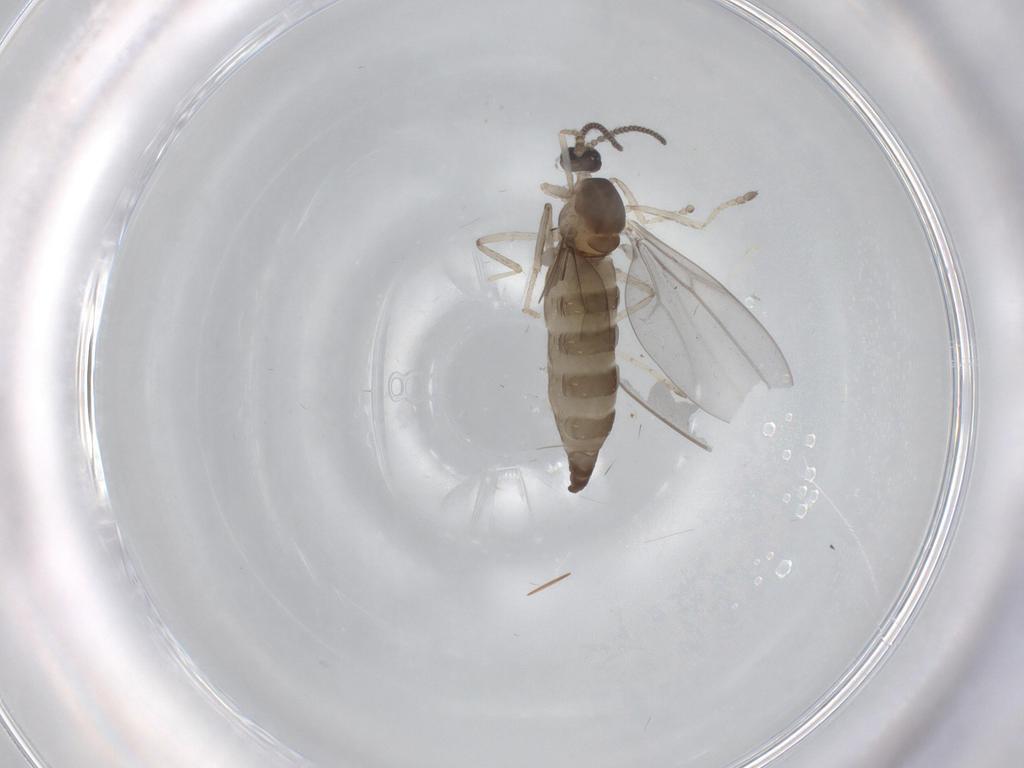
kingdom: Animalia
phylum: Arthropoda
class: Insecta
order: Diptera
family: Cecidomyiidae
